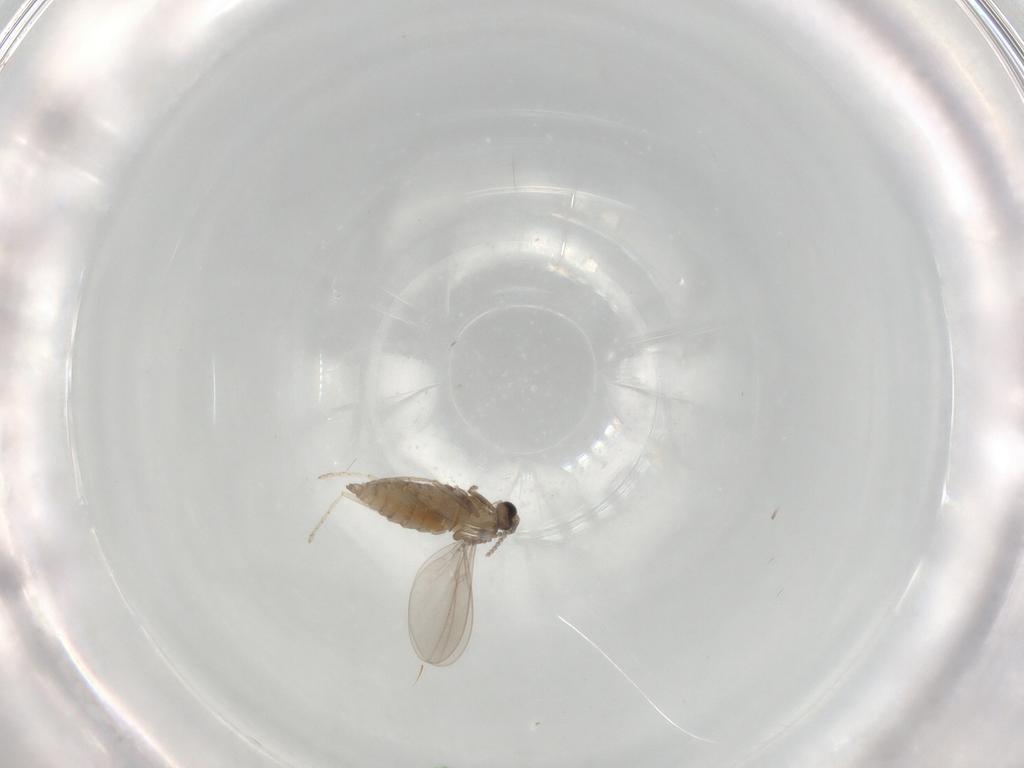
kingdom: Animalia
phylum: Arthropoda
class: Insecta
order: Diptera
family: Cecidomyiidae
